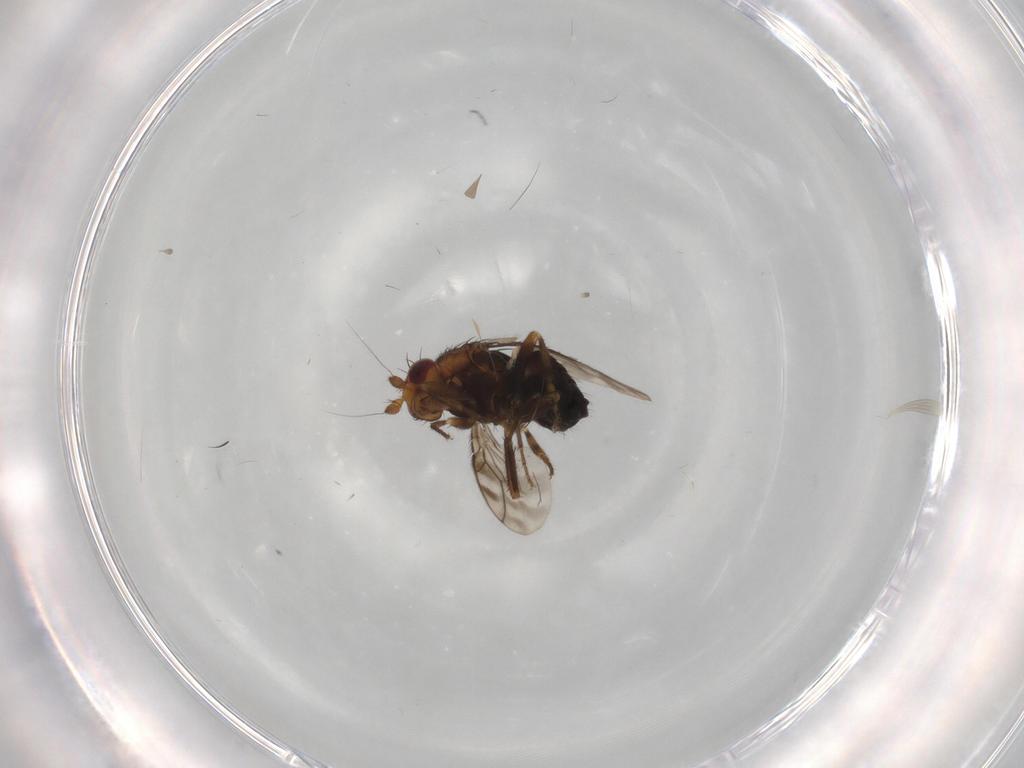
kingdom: Animalia
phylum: Arthropoda
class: Insecta
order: Diptera
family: Sphaeroceridae
